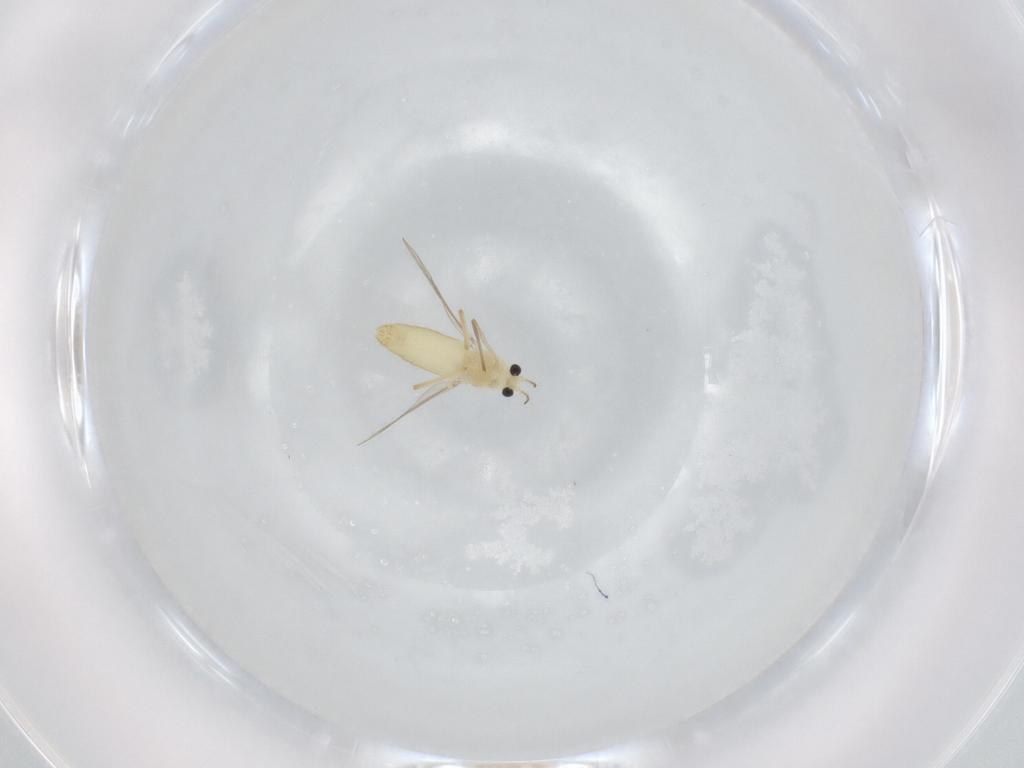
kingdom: Animalia
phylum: Arthropoda
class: Insecta
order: Diptera
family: Chironomidae
